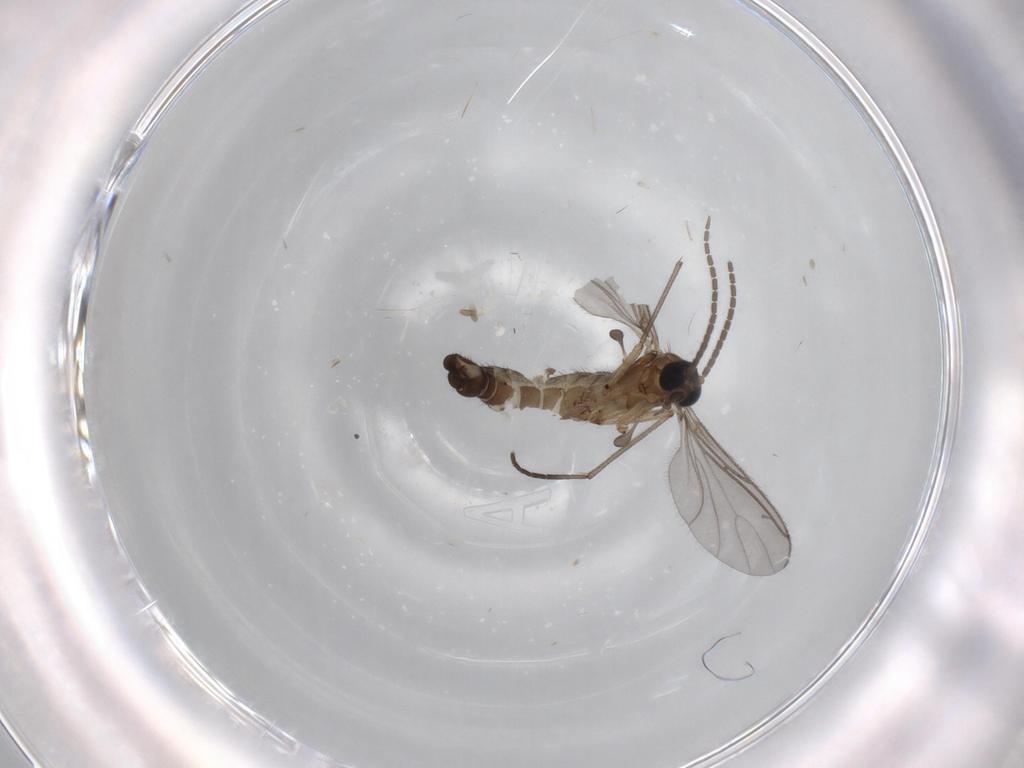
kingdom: Animalia
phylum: Arthropoda
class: Insecta
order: Diptera
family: Sciaridae
